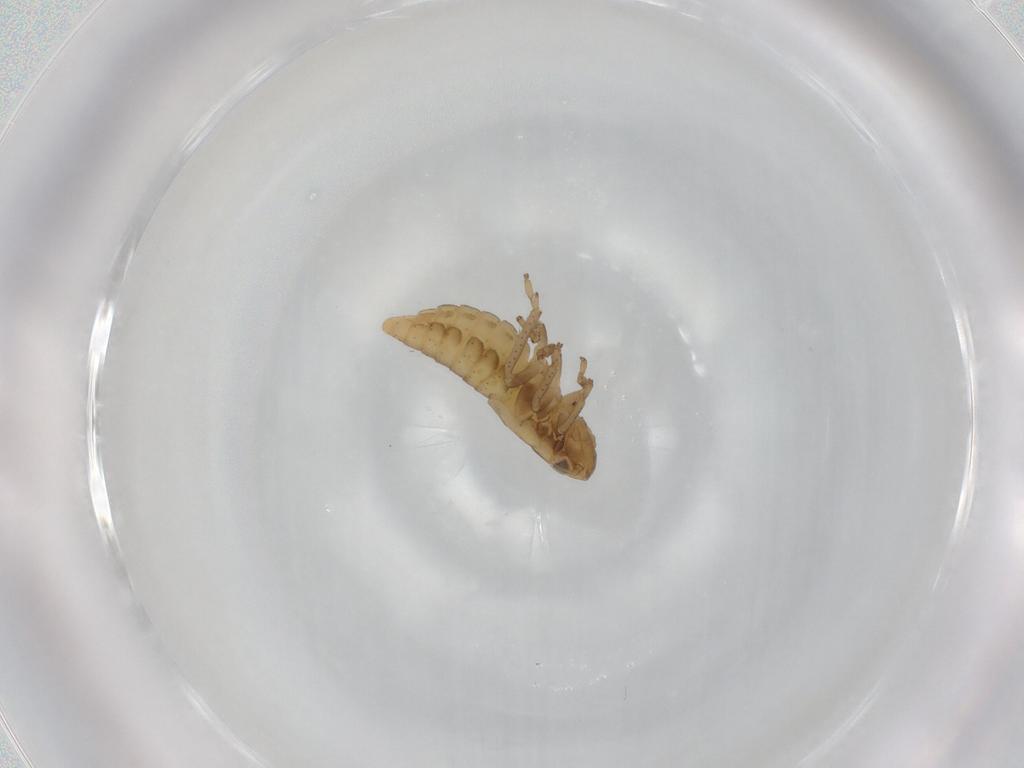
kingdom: Animalia
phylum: Arthropoda
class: Insecta
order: Hemiptera
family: Cicadellidae
